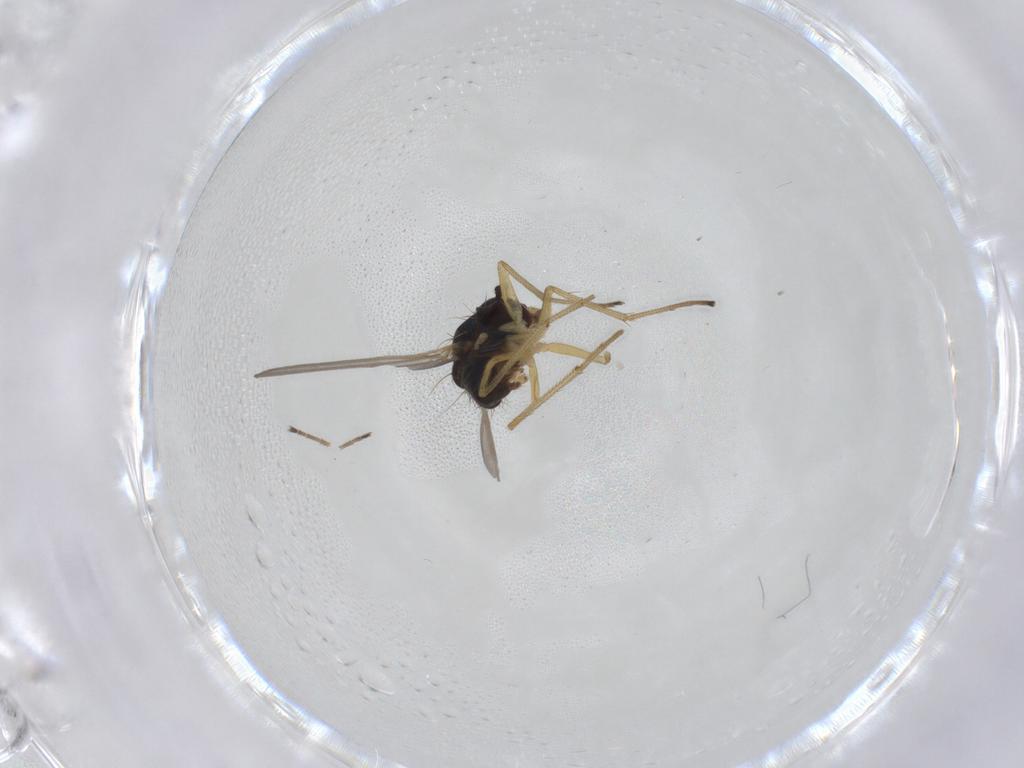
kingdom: Animalia
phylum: Arthropoda
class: Insecta
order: Diptera
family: Dolichopodidae
